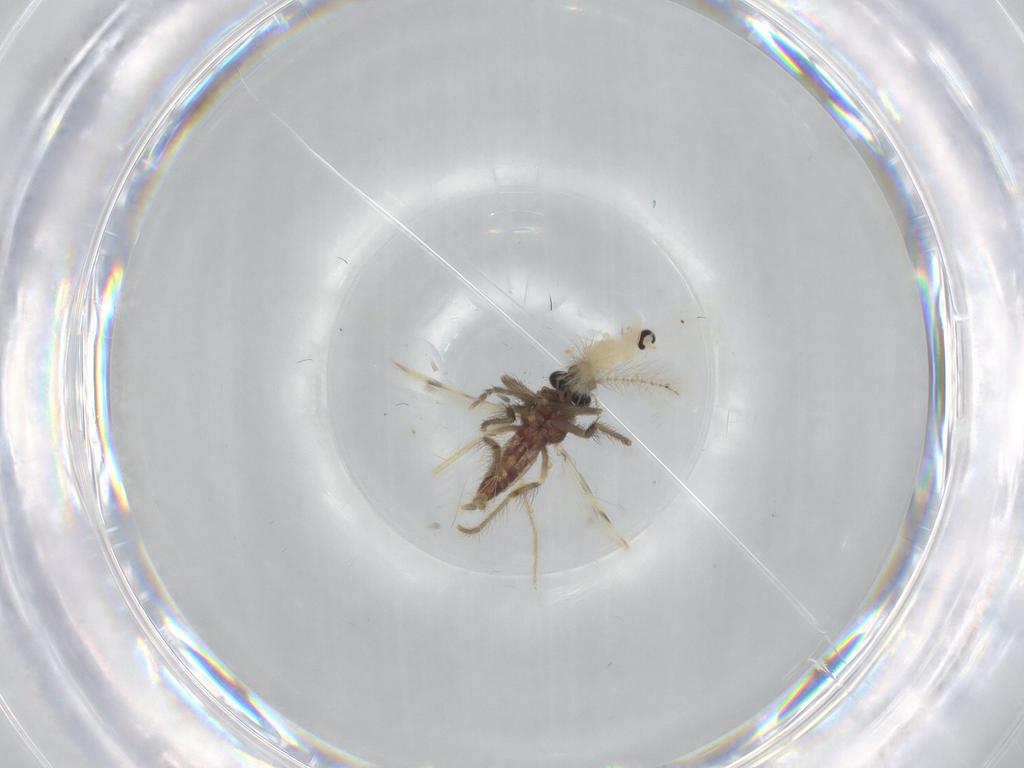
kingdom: Animalia
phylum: Arthropoda
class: Insecta
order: Diptera
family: Corethrellidae
